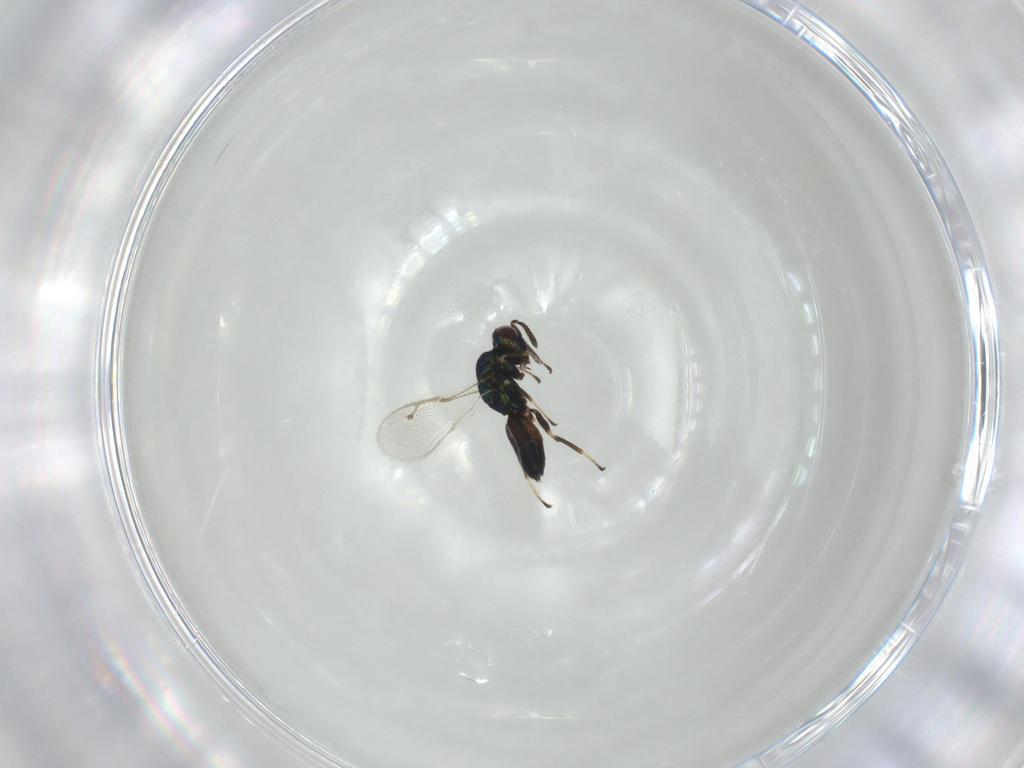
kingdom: Animalia
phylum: Arthropoda
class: Insecta
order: Hymenoptera
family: Pteromalidae
